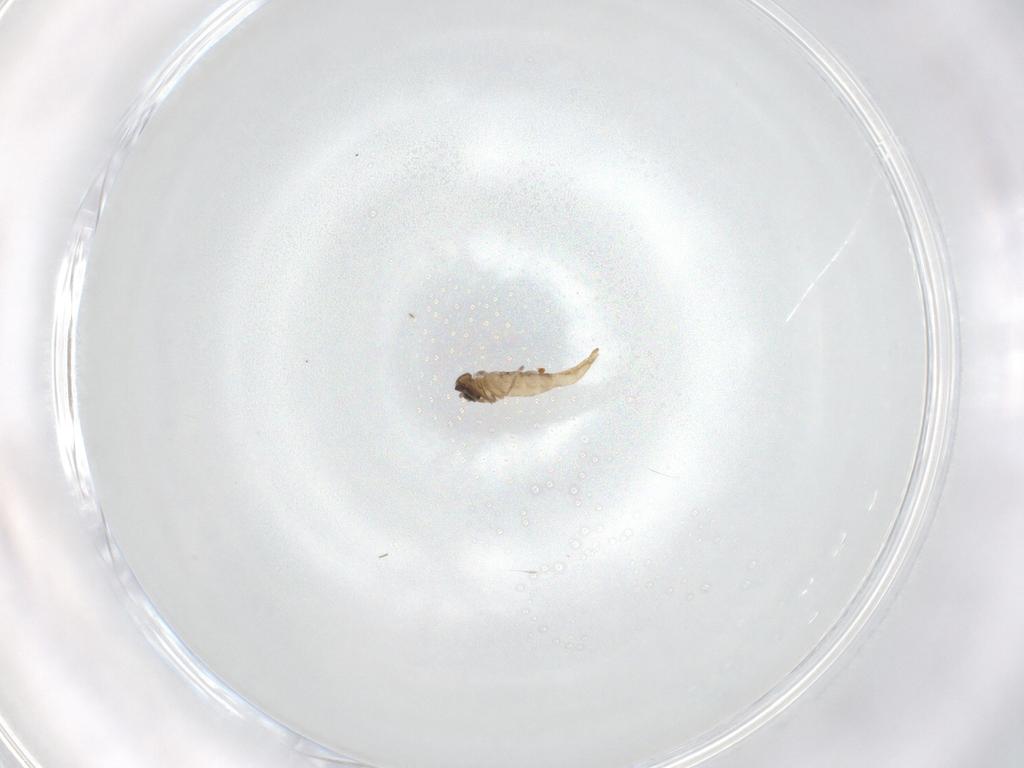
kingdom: Animalia
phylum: Arthropoda
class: Insecta
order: Diptera
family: Cecidomyiidae
